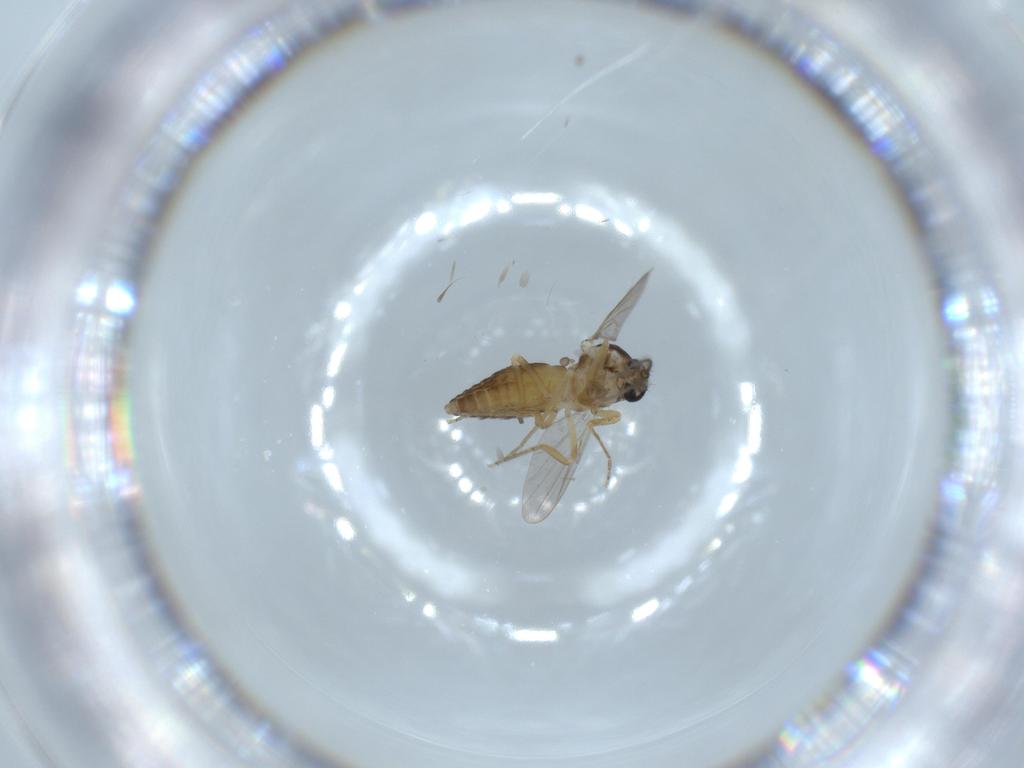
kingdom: Animalia
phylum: Arthropoda
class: Insecta
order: Diptera
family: Ceratopogonidae
